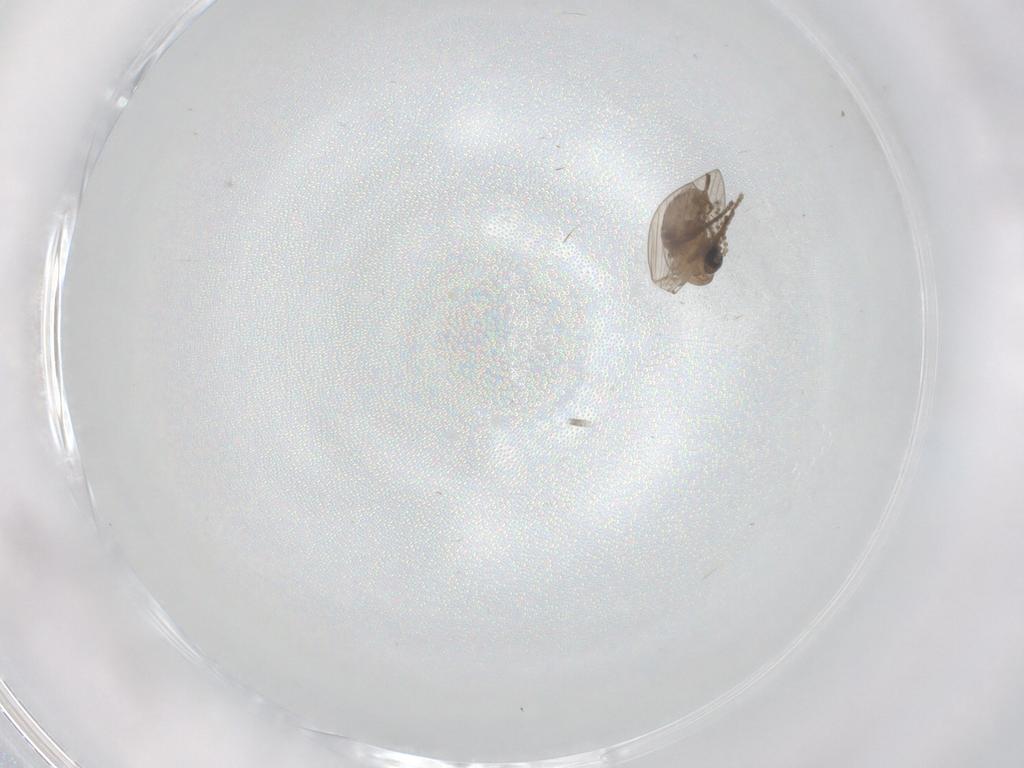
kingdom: Animalia
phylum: Arthropoda
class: Insecta
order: Diptera
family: Psychodidae
